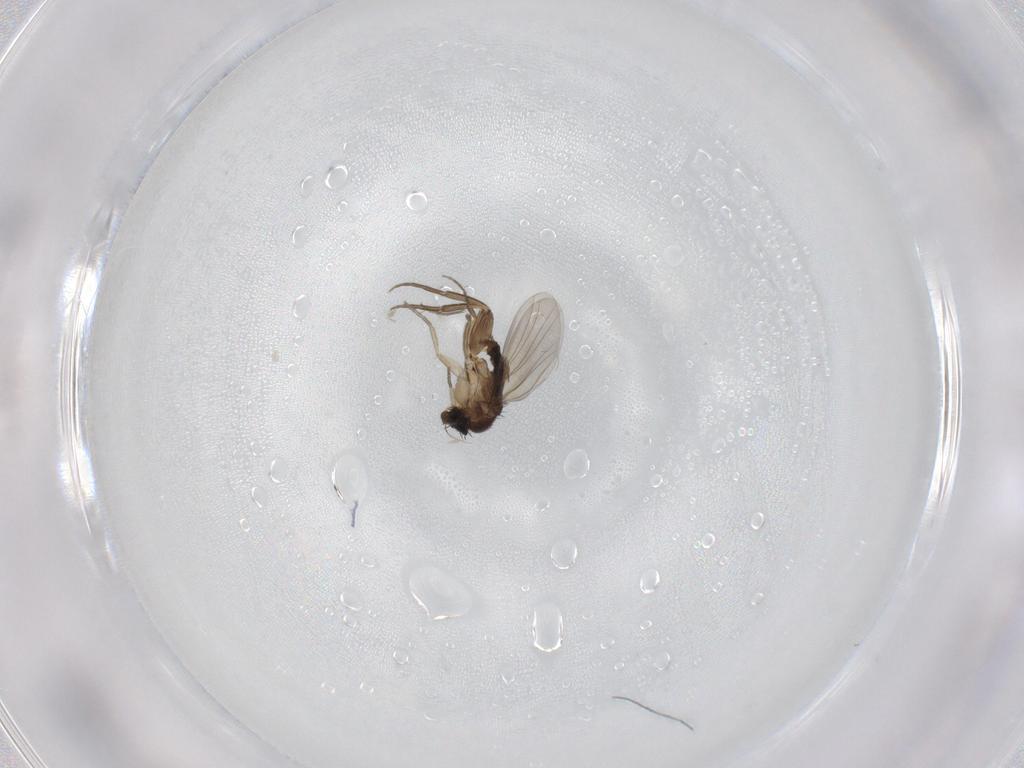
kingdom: Animalia
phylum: Arthropoda
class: Insecta
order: Diptera
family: Phoridae
